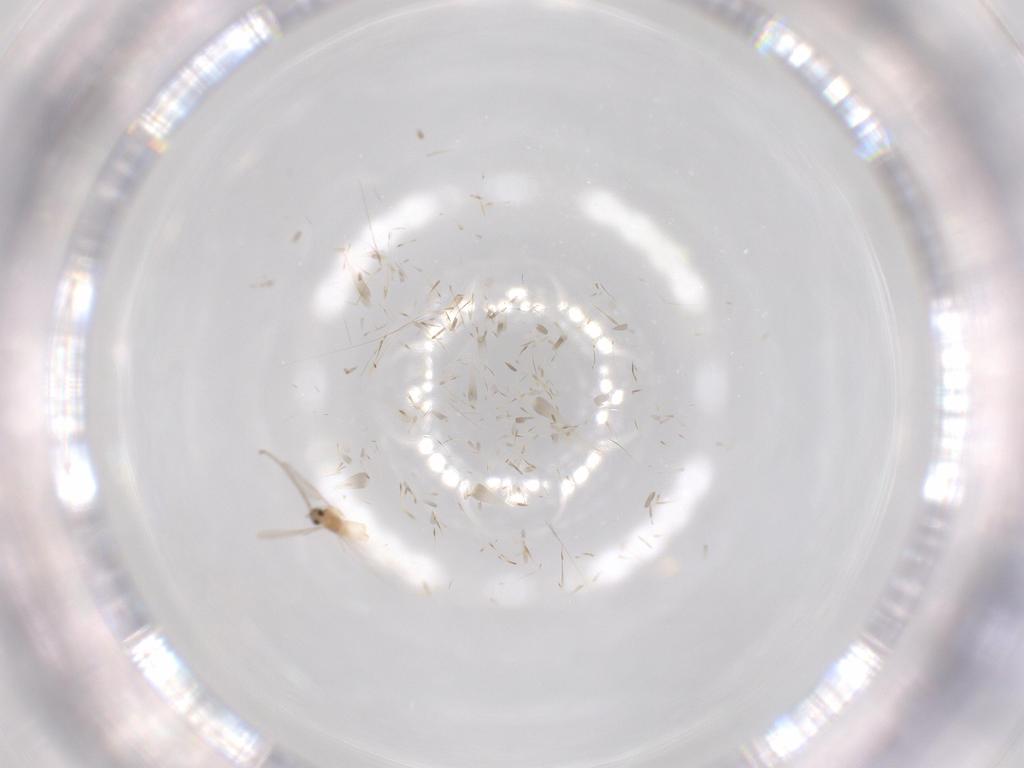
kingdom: Animalia
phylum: Arthropoda
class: Insecta
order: Diptera
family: Cecidomyiidae
